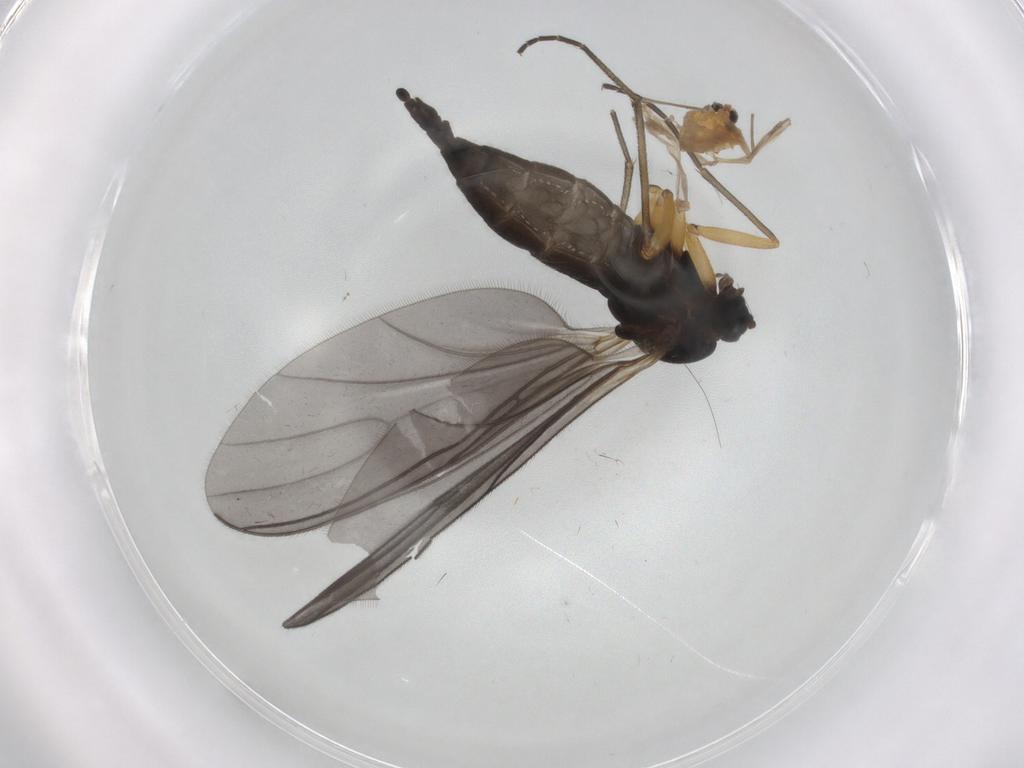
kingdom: Animalia
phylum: Arthropoda
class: Insecta
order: Diptera
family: Sciaridae
